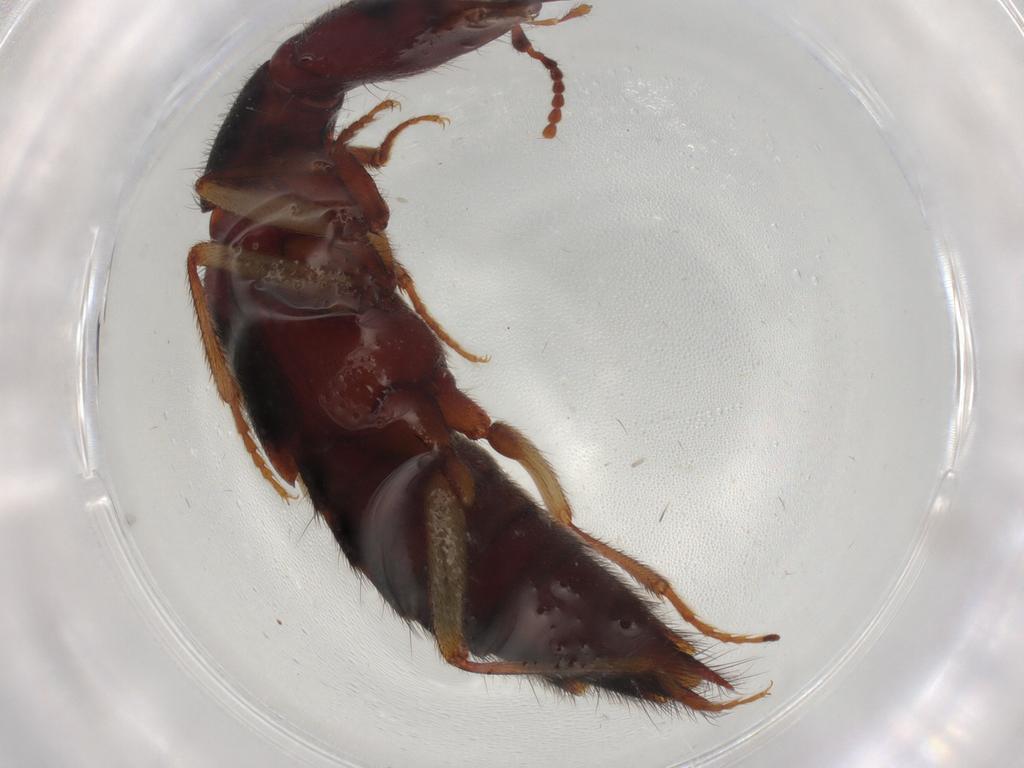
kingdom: Animalia
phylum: Arthropoda
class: Insecta
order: Coleoptera
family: Staphylinidae
